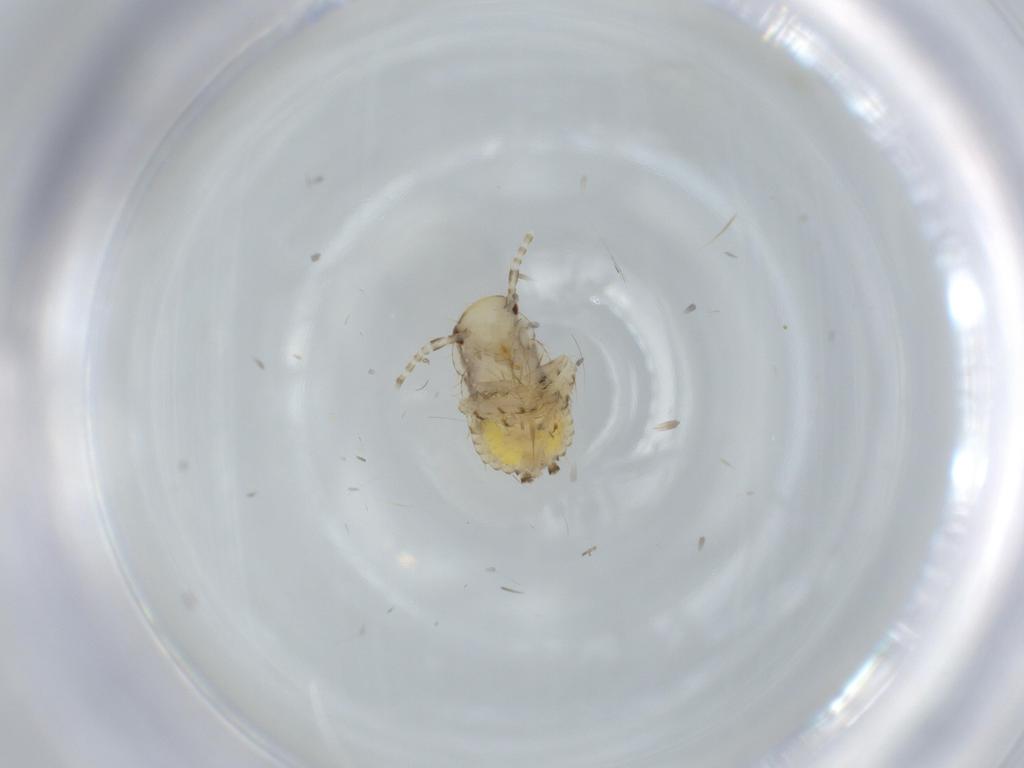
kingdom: Animalia
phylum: Arthropoda
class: Insecta
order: Blattodea
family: Ectobiidae
